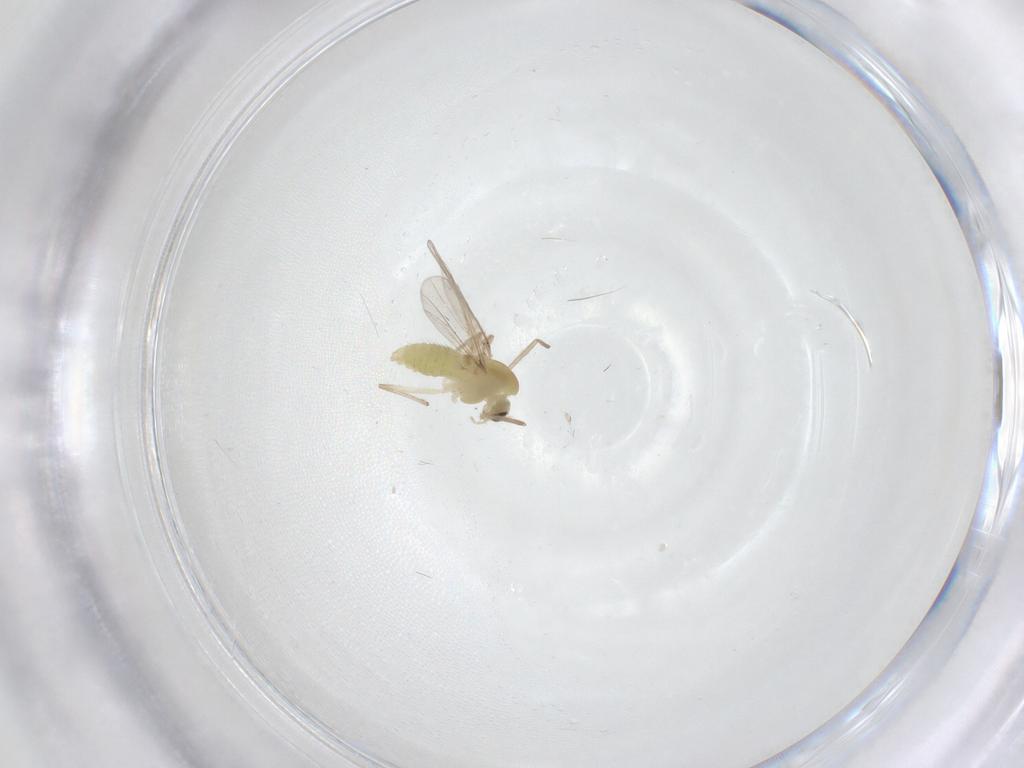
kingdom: Animalia
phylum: Arthropoda
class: Insecta
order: Diptera
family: Chironomidae
